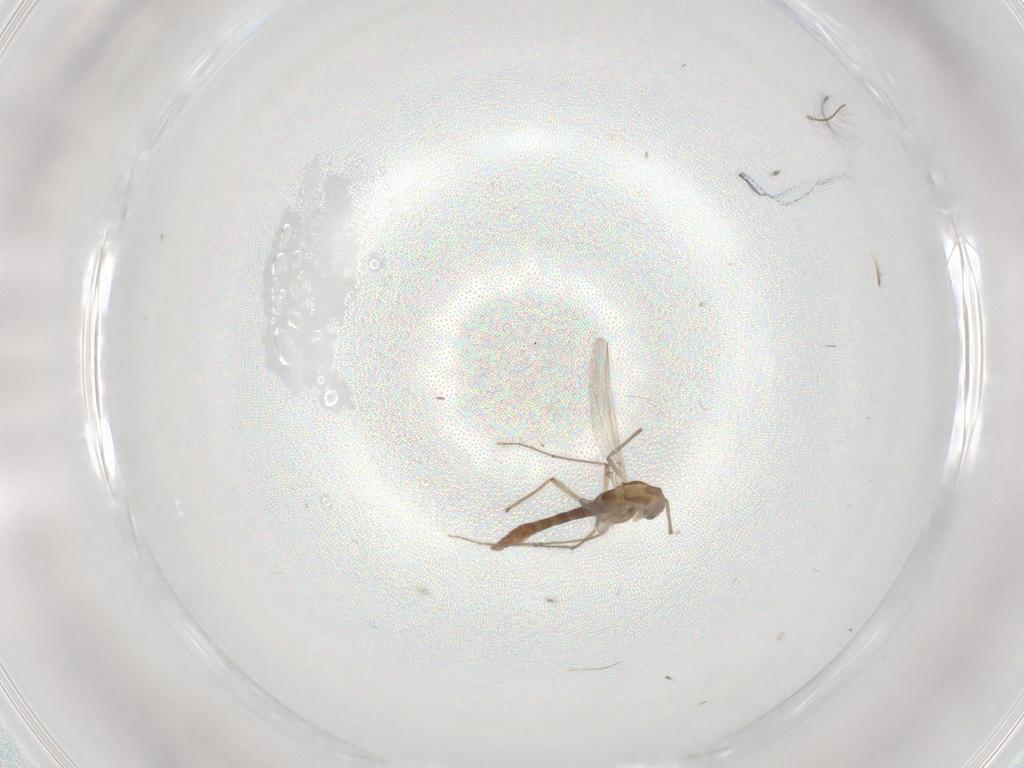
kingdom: Animalia
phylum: Arthropoda
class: Insecta
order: Diptera
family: Chironomidae
